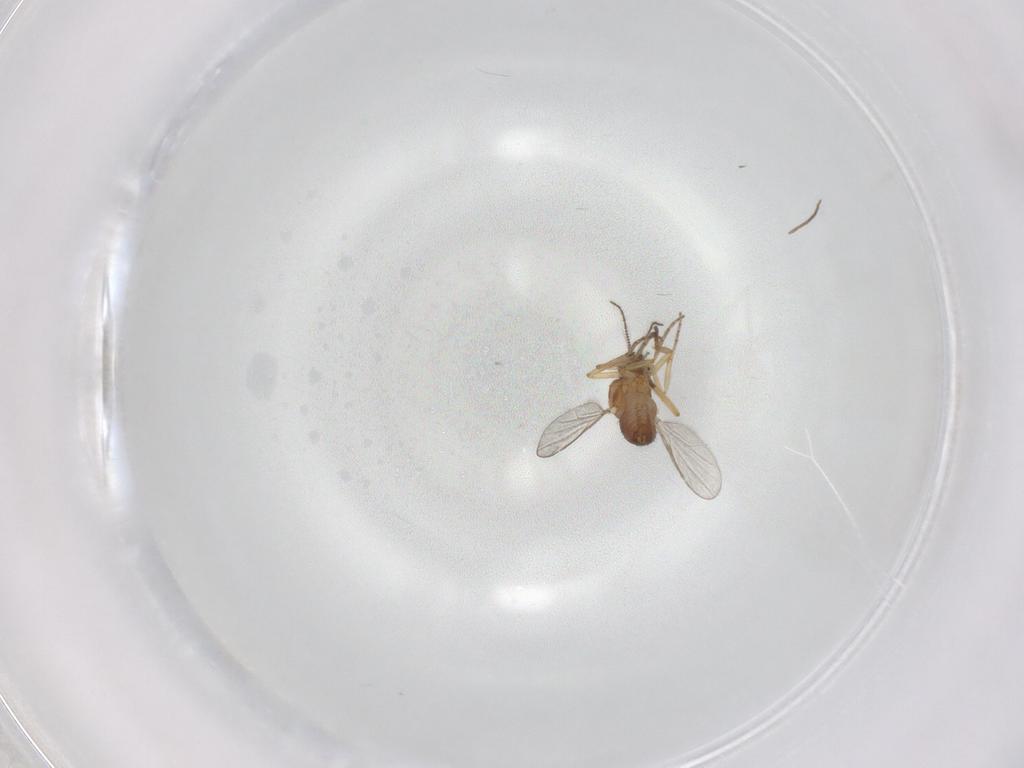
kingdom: Animalia
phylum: Arthropoda
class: Insecta
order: Diptera
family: Chironomidae
